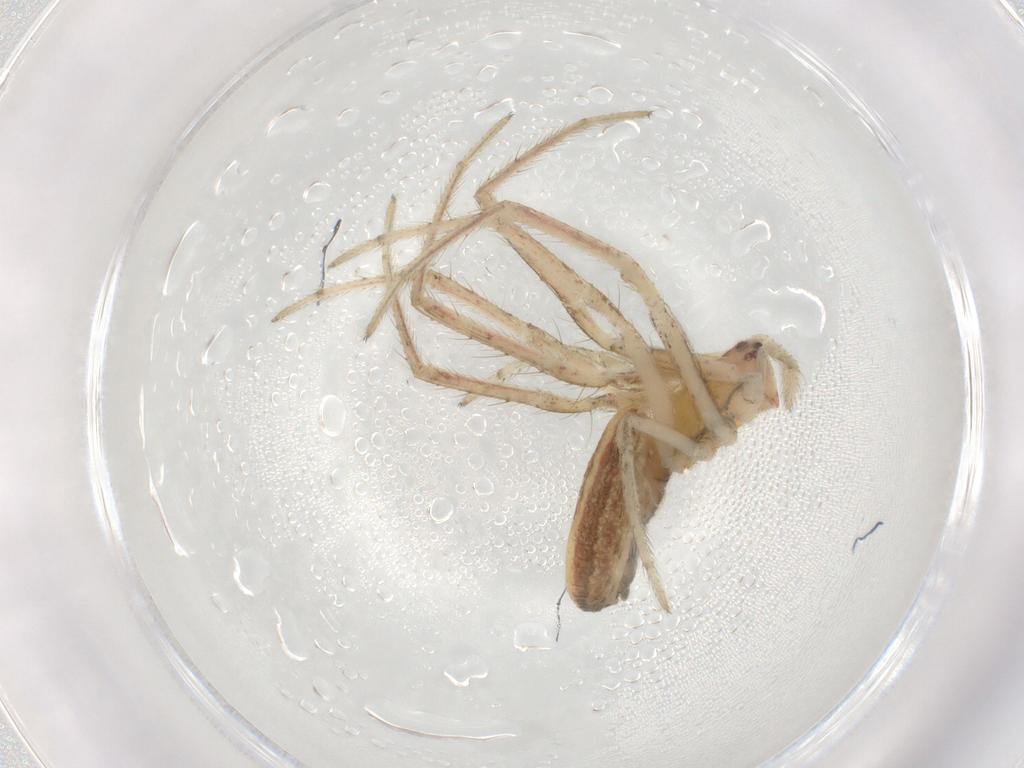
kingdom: Animalia
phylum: Arthropoda
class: Arachnida
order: Araneae
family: Tetragnathidae
